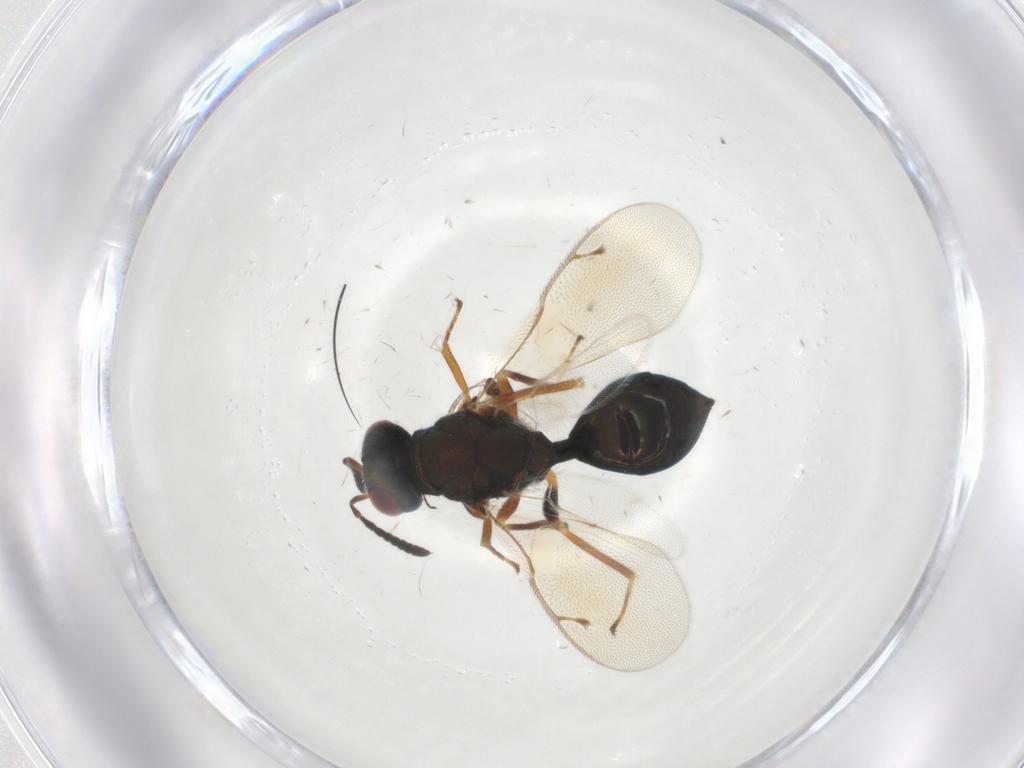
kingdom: Animalia
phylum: Arthropoda
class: Insecta
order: Hymenoptera
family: Pteromalidae
